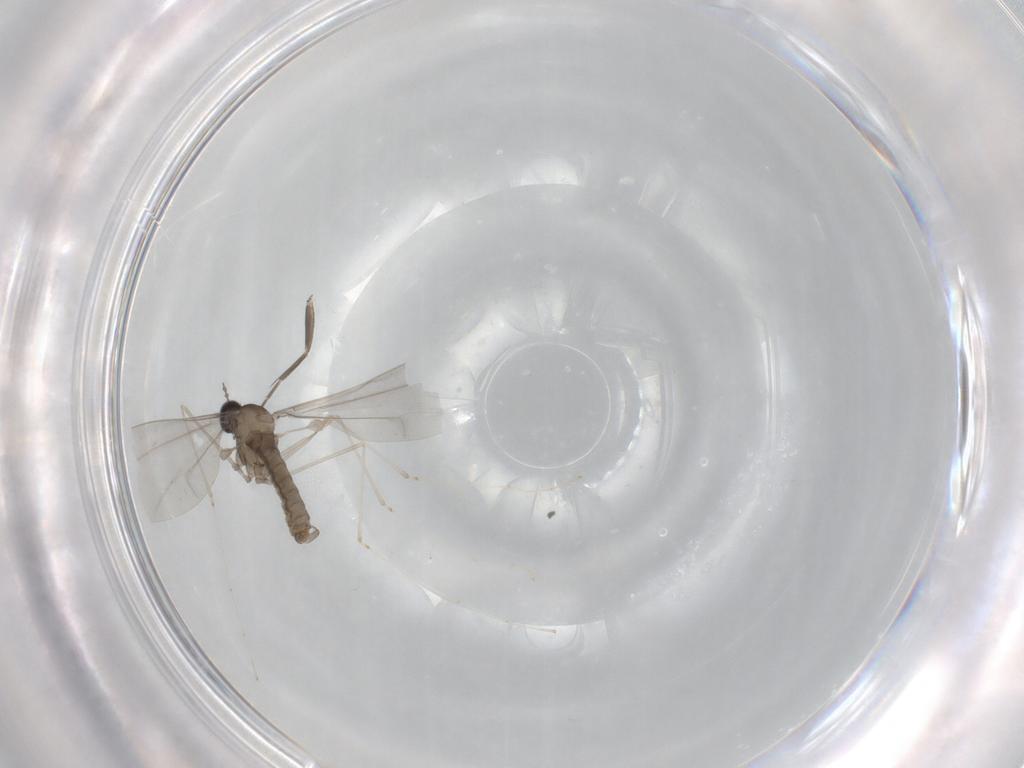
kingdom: Animalia
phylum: Arthropoda
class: Insecta
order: Diptera
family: Cecidomyiidae
